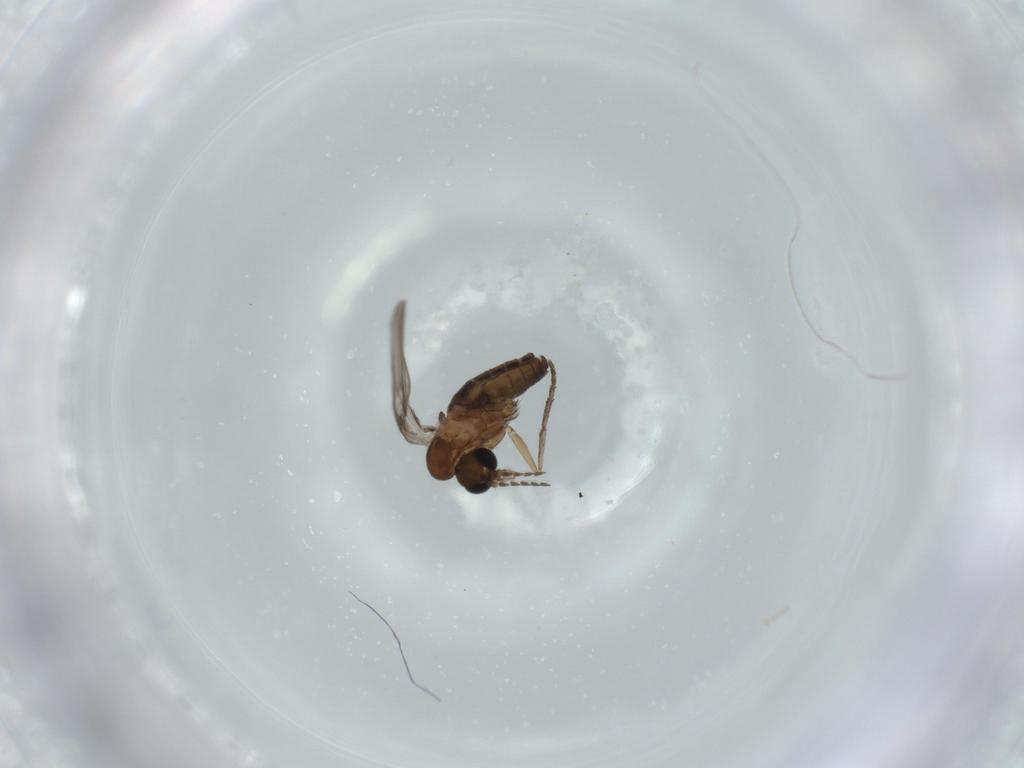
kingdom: Animalia
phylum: Arthropoda
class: Insecta
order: Diptera
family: Psychodidae
